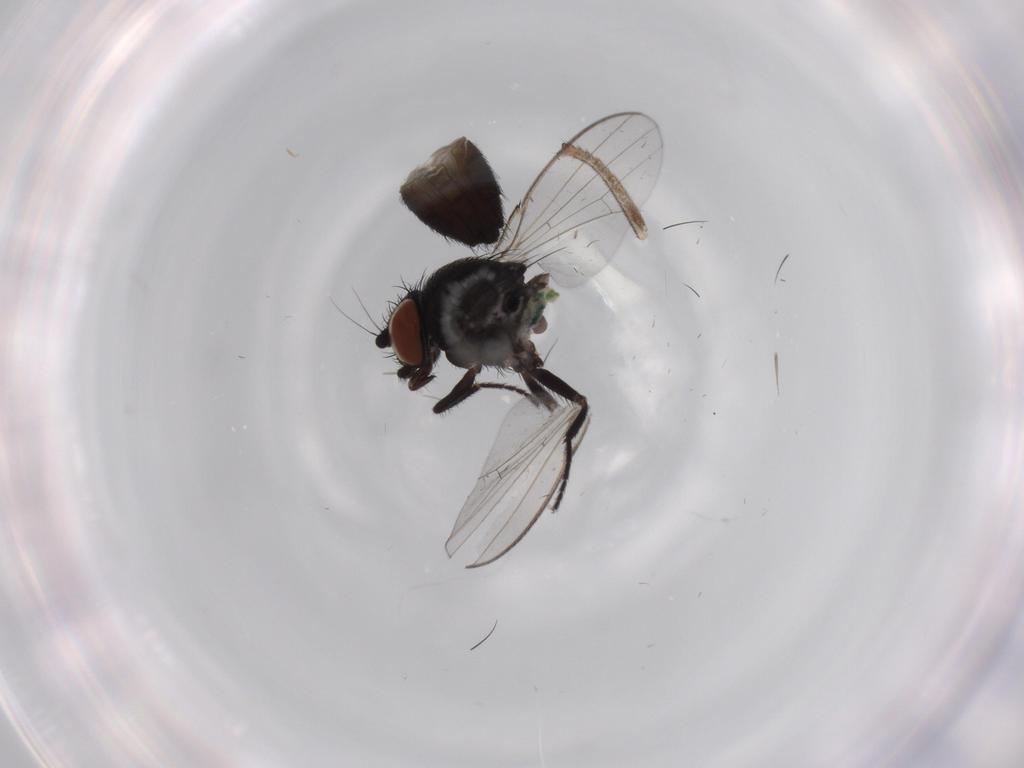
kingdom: Animalia
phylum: Arthropoda
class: Insecta
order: Diptera
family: Milichiidae
